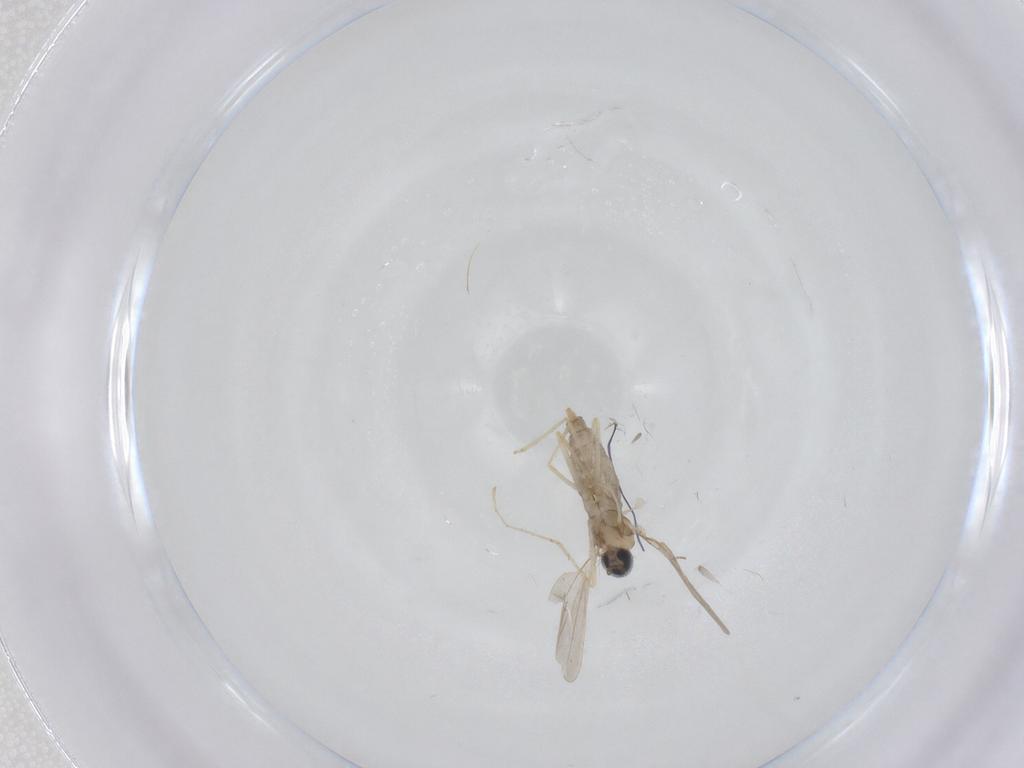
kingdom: Animalia
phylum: Arthropoda
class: Insecta
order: Diptera
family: Cecidomyiidae
